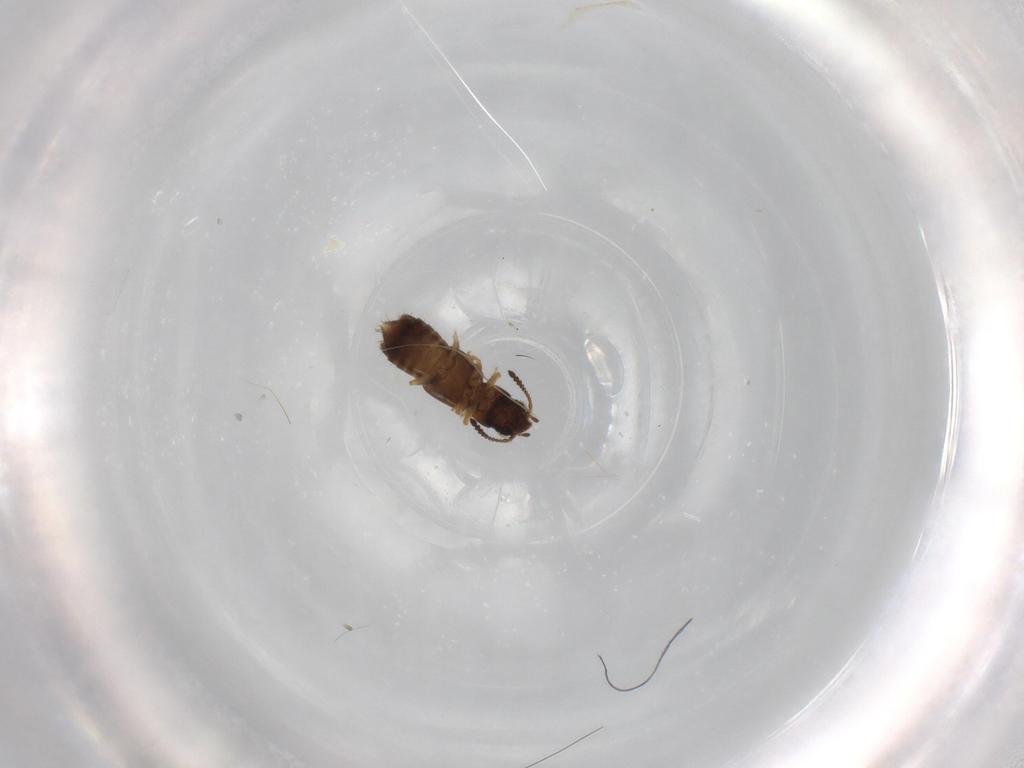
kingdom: Animalia
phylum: Arthropoda
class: Insecta
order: Coleoptera
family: Staphylinidae
